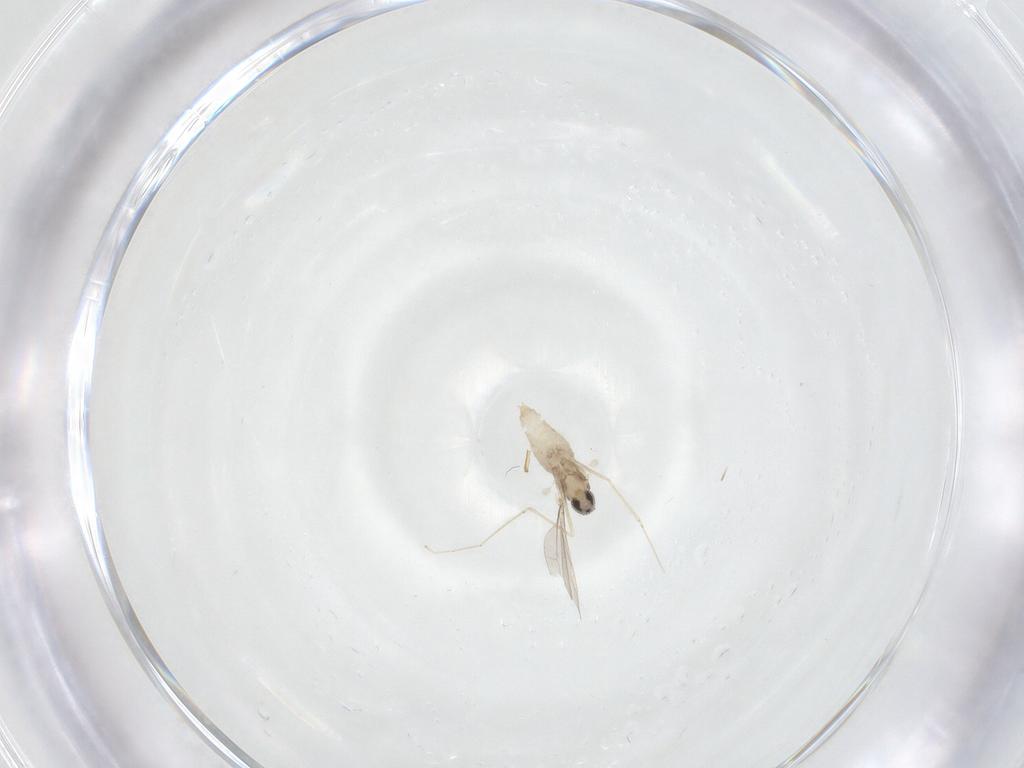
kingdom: Animalia
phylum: Arthropoda
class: Insecta
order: Diptera
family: Cecidomyiidae
